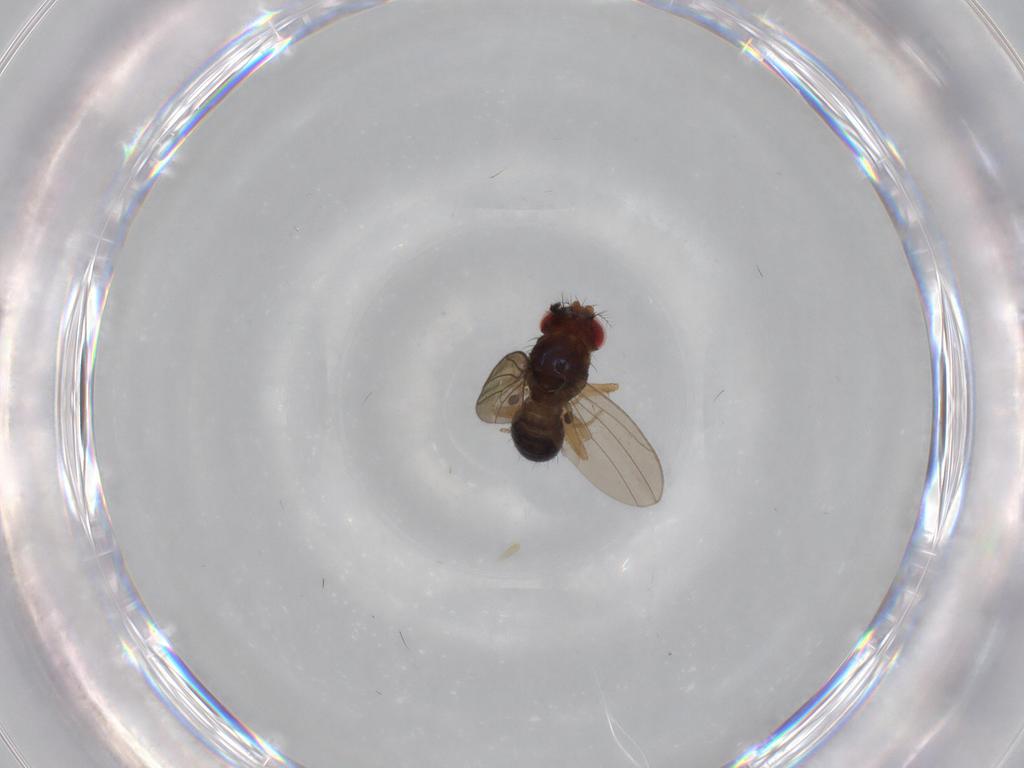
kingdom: Animalia
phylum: Arthropoda
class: Insecta
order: Diptera
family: Drosophilidae
